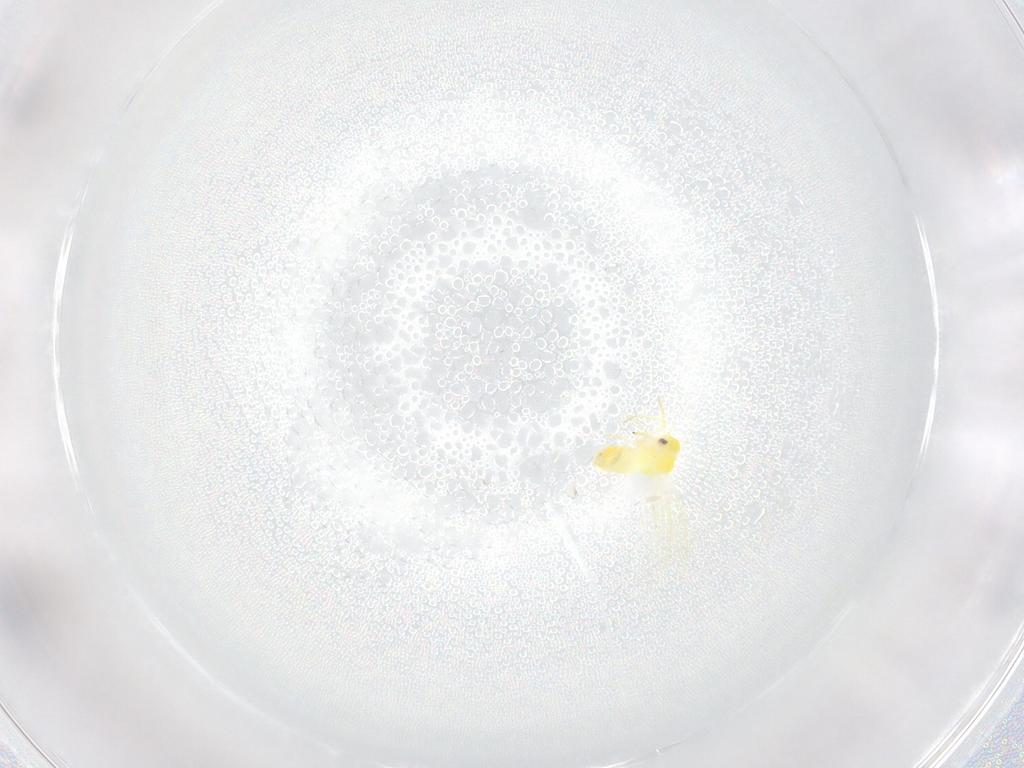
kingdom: Animalia
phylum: Arthropoda
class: Insecta
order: Hemiptera
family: Aleyrodidae
